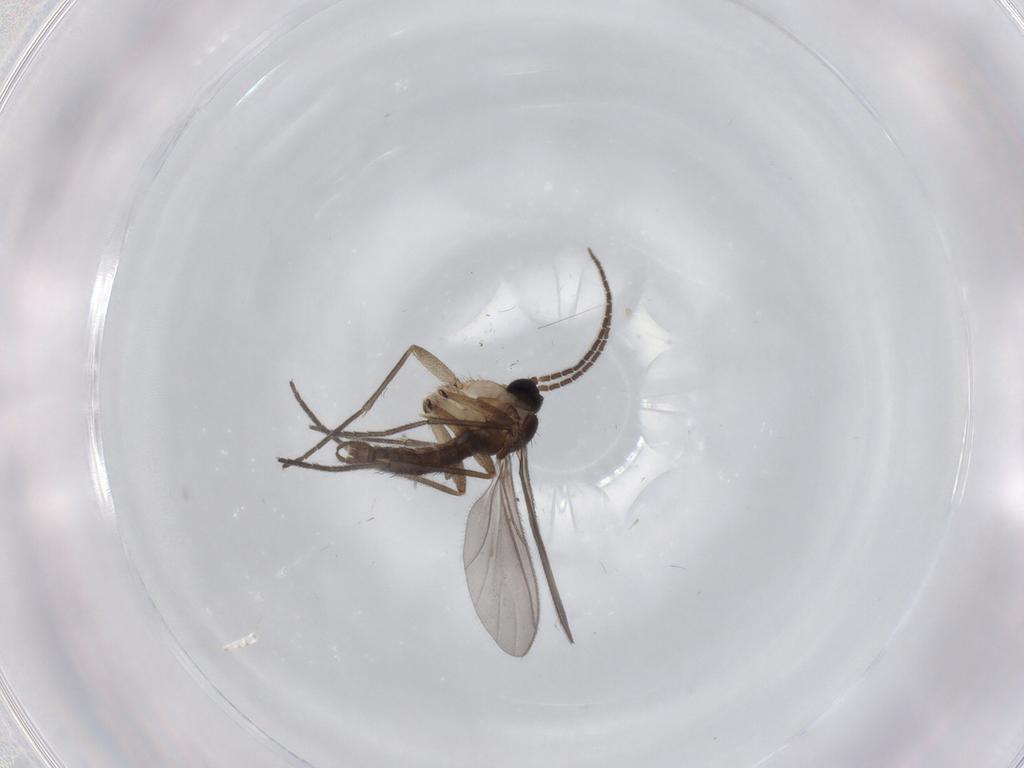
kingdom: Animalia
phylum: Arthropoda
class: Insecta
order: Diptera
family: Sciaridae
